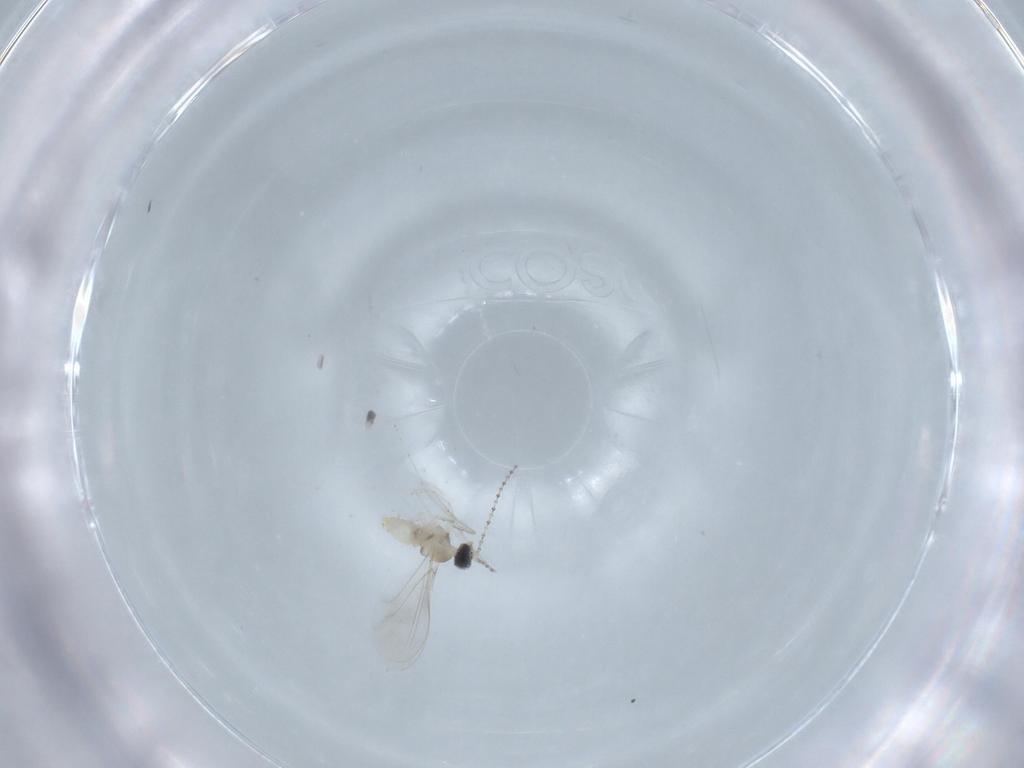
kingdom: Animalia
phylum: Arthropoda
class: Insecta
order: Diptera
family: Cecidomyiidae
